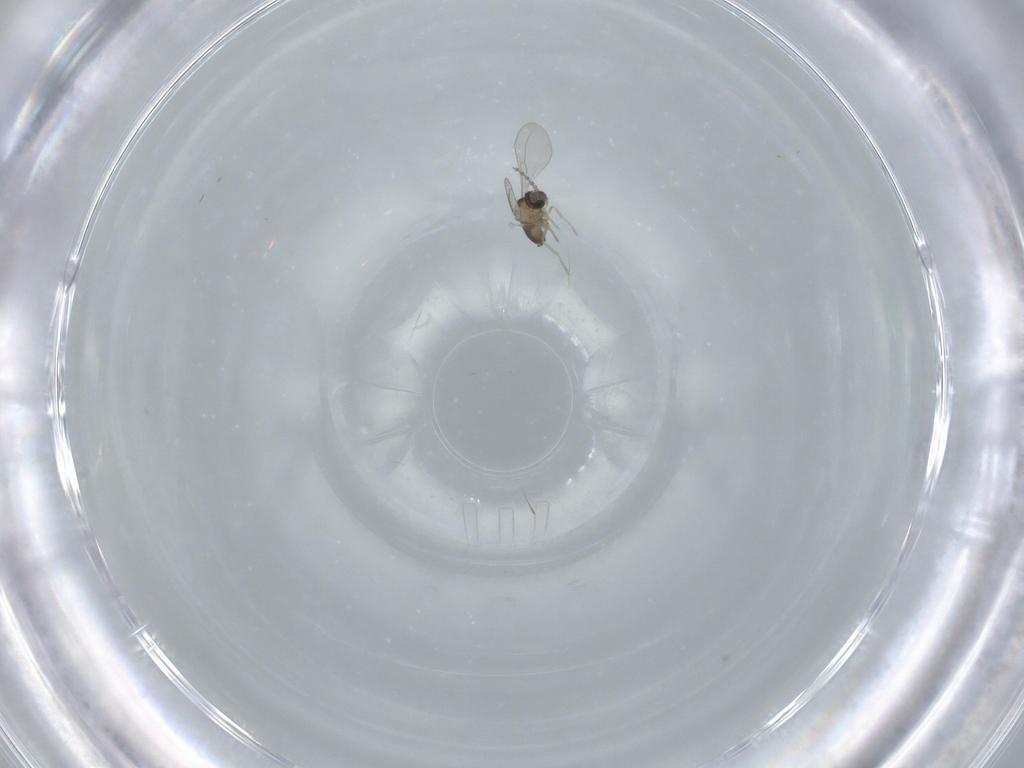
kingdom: Animalia
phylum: Arthropoda
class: Insecta
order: Diptera
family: Cecidomyiidae
